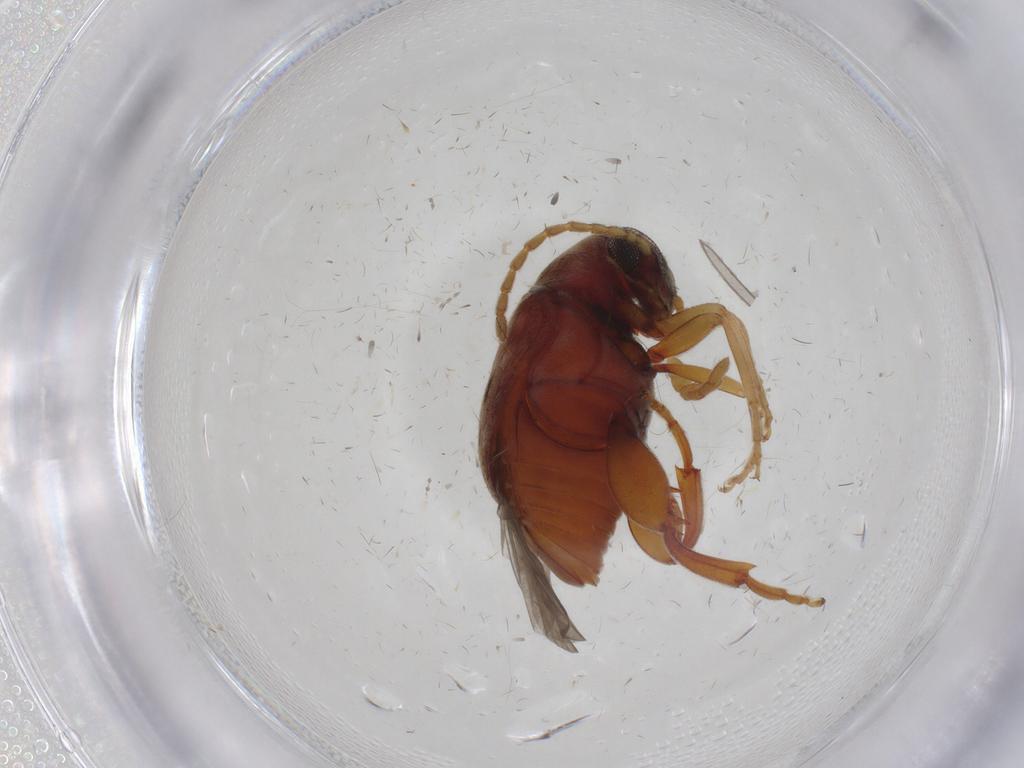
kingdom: Animalia
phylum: Arthropoda
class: Insecta
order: Coleoptera
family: Chrysomelidae
